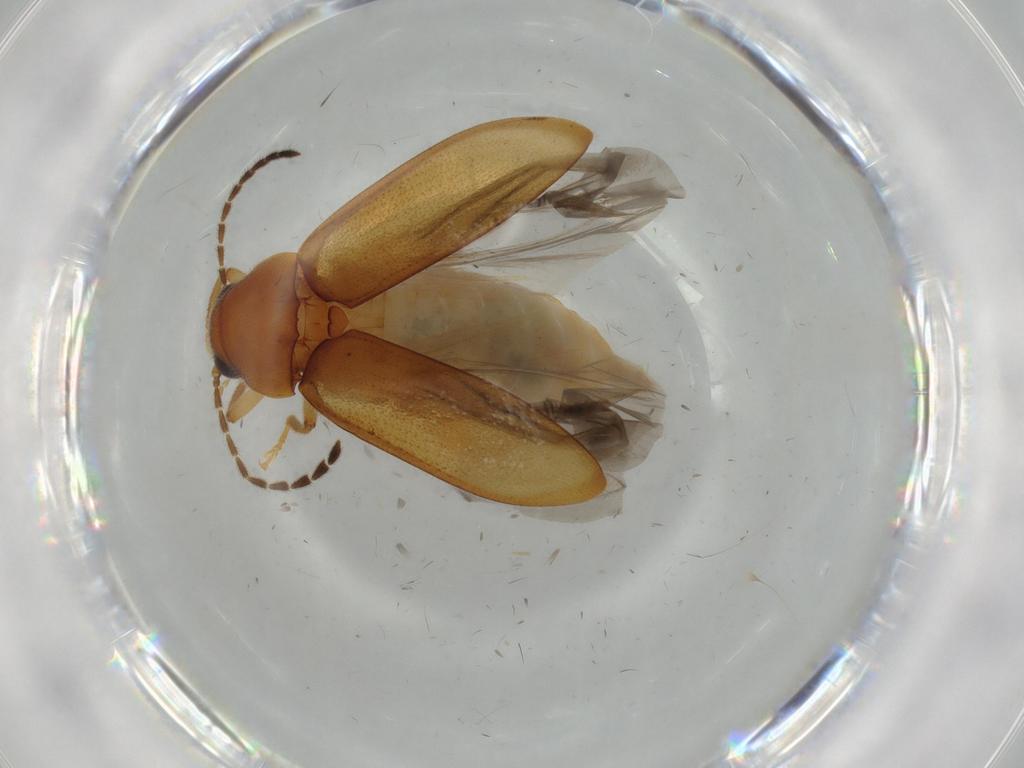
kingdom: Animalia
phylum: Arthropoda
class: Insecta
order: Coleoptera
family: Ptilodactylidae
